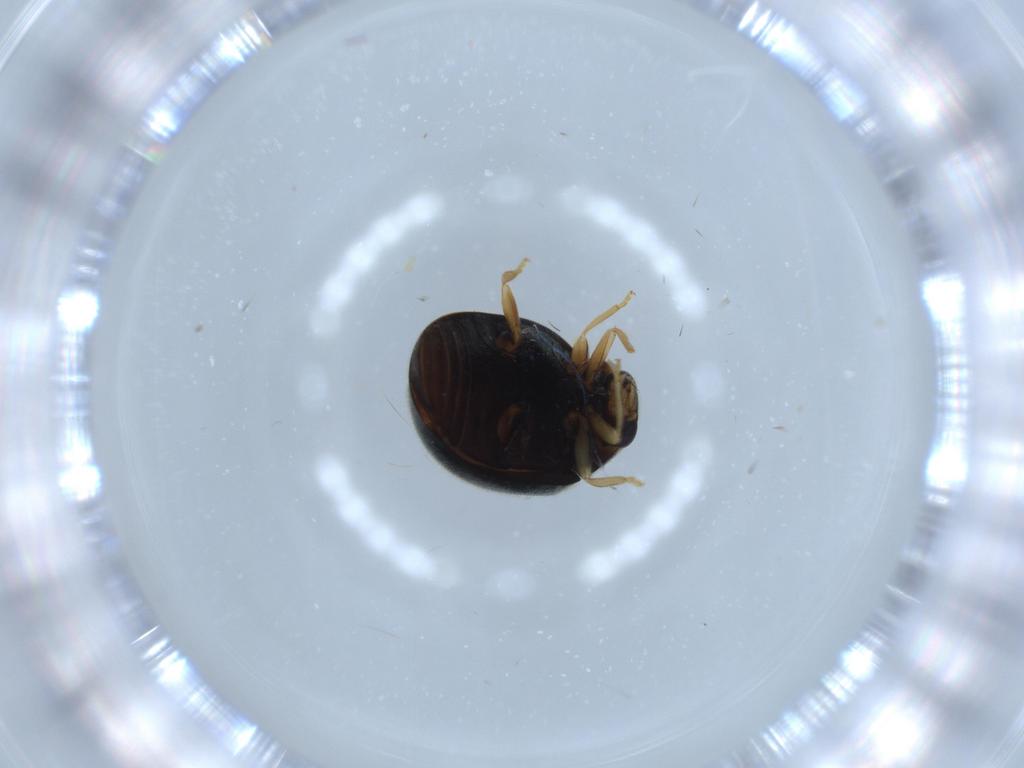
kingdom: Animalia
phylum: Arthropoda
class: Insecta
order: Coleoptera
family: Coccinellidae
